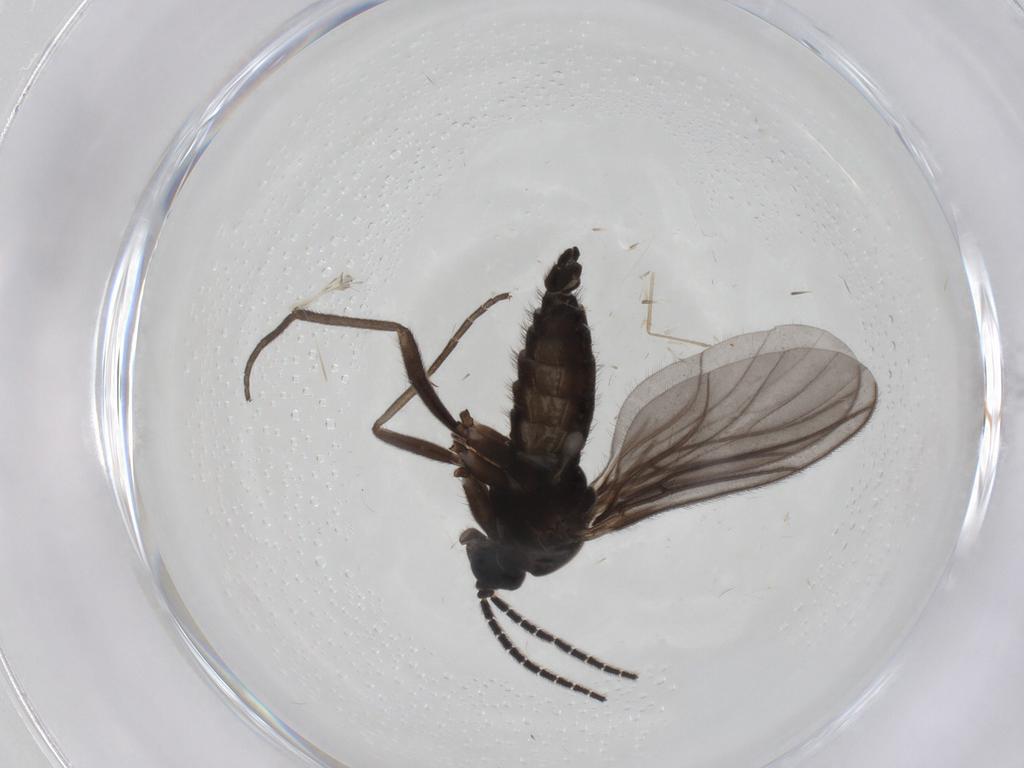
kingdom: Animalia
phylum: Arthropoda
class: Insecta
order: Diptera
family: Sciaridae
